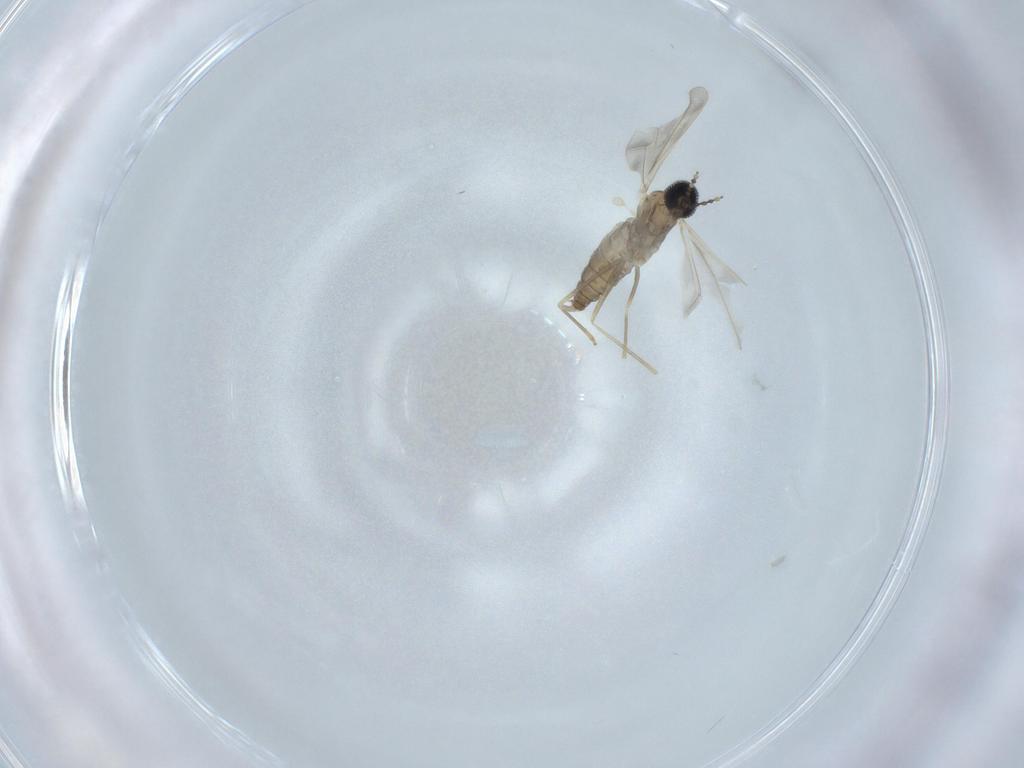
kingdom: Animalia
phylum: Arthropoda
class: Insecta
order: Diptera
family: Cecidomyiidae
